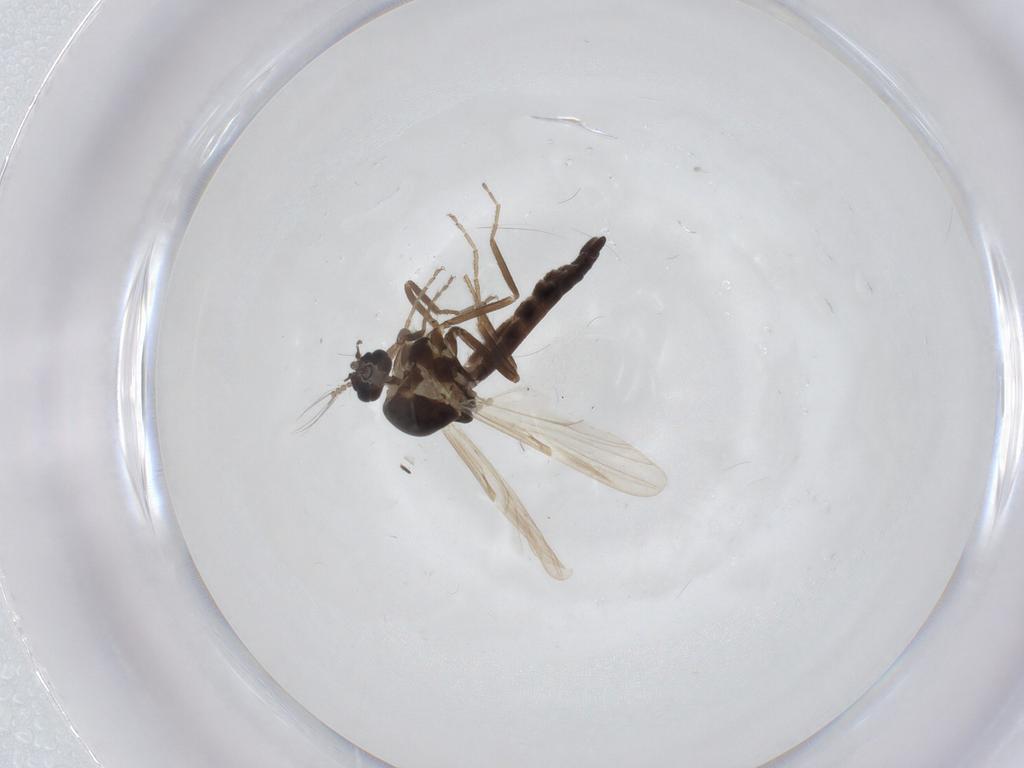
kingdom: Animalia
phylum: Arthropoda
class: Insecta
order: Diptera
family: Ceratopogonidae
